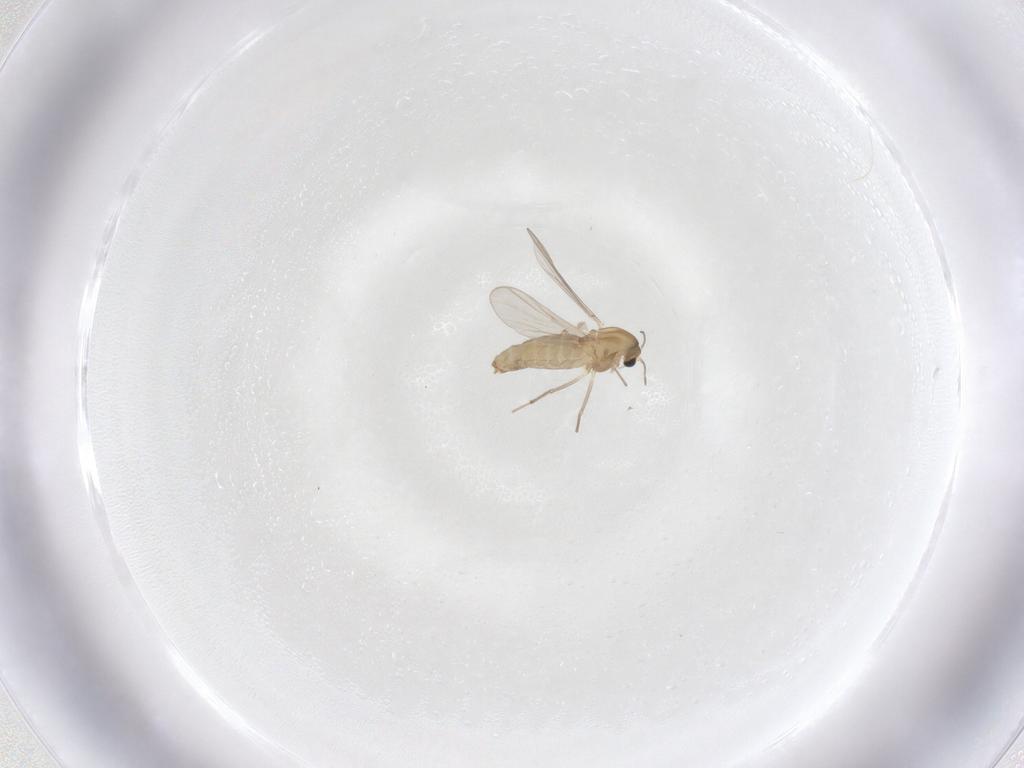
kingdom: Animalia
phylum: Arthropoda
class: Insecta
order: Diptera
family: Chironomidae
